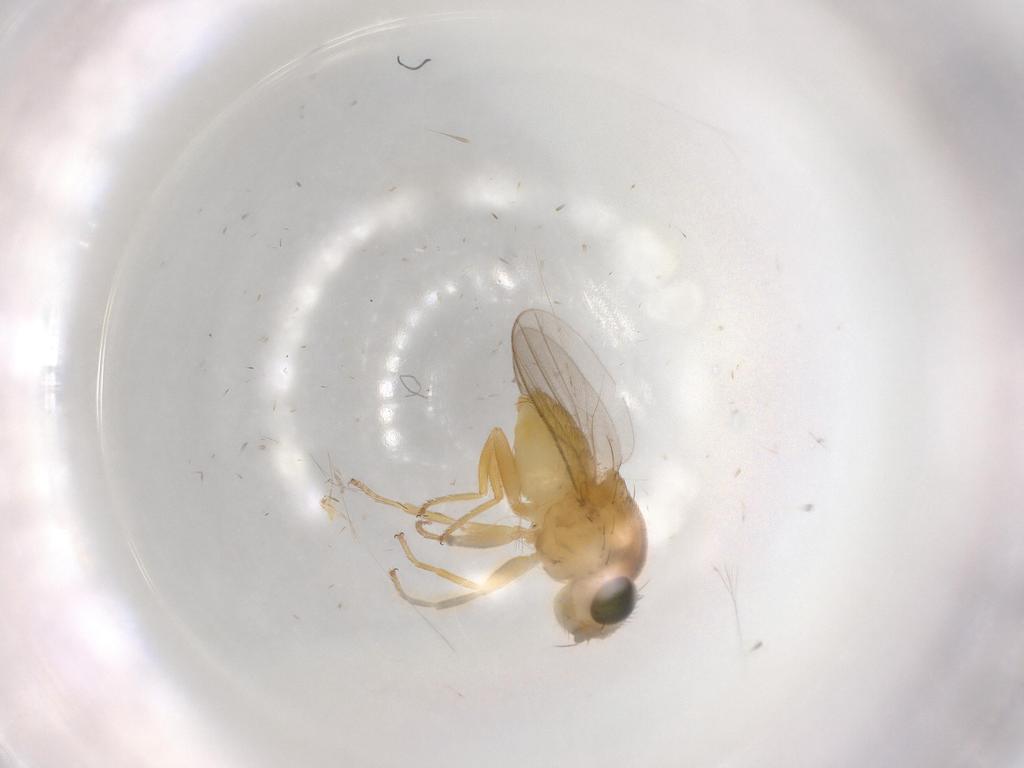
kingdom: Animalia
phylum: Arthropoda
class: Insecta
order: Diptera
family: Chloropidae
